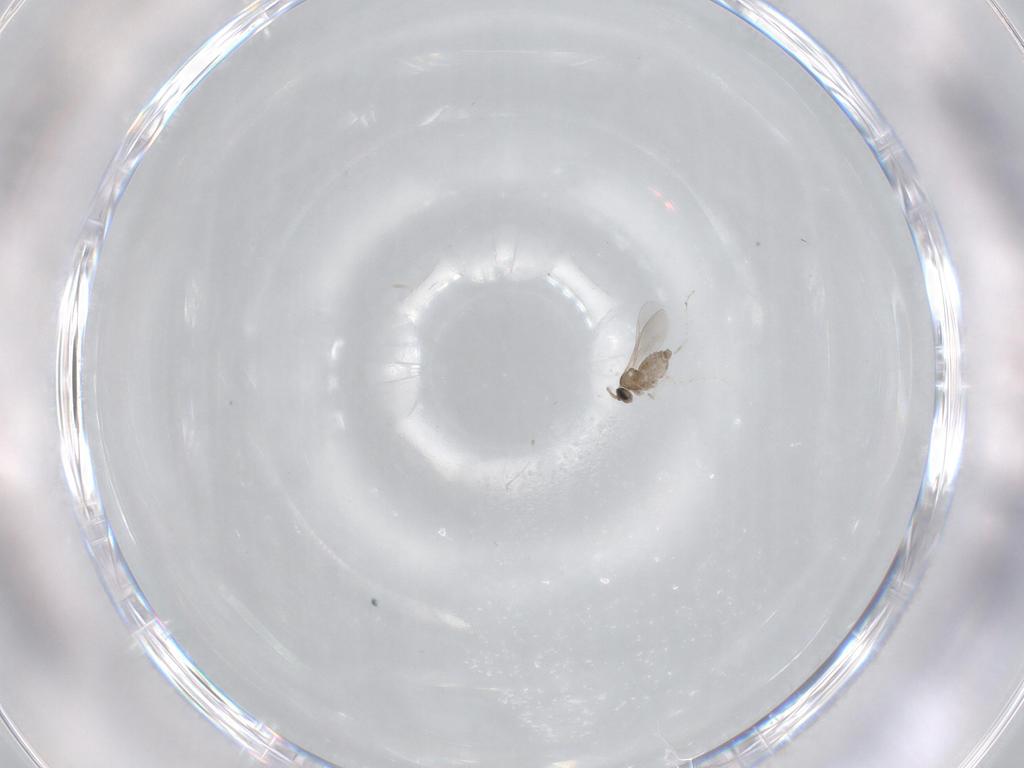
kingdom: Animalia
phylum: Arthropoda
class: Insecta
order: Diptera
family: Cecidomyiidae
